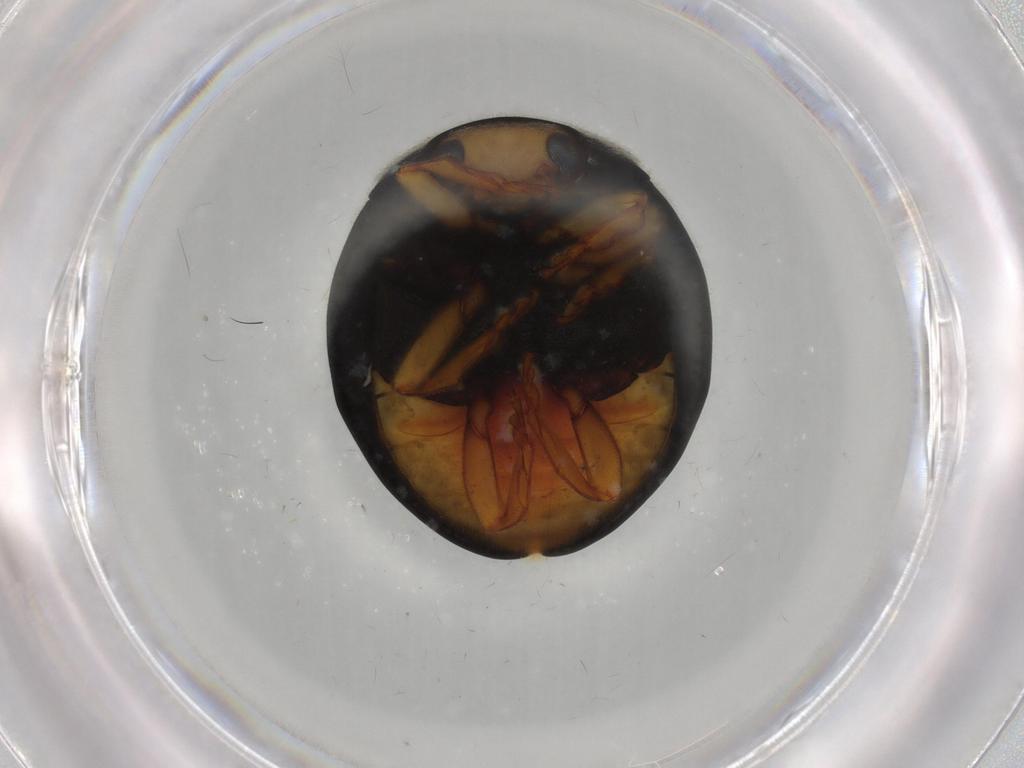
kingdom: Animalia
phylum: Arthropoda
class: Insecta
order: Coleoptera
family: Coccinellidae
